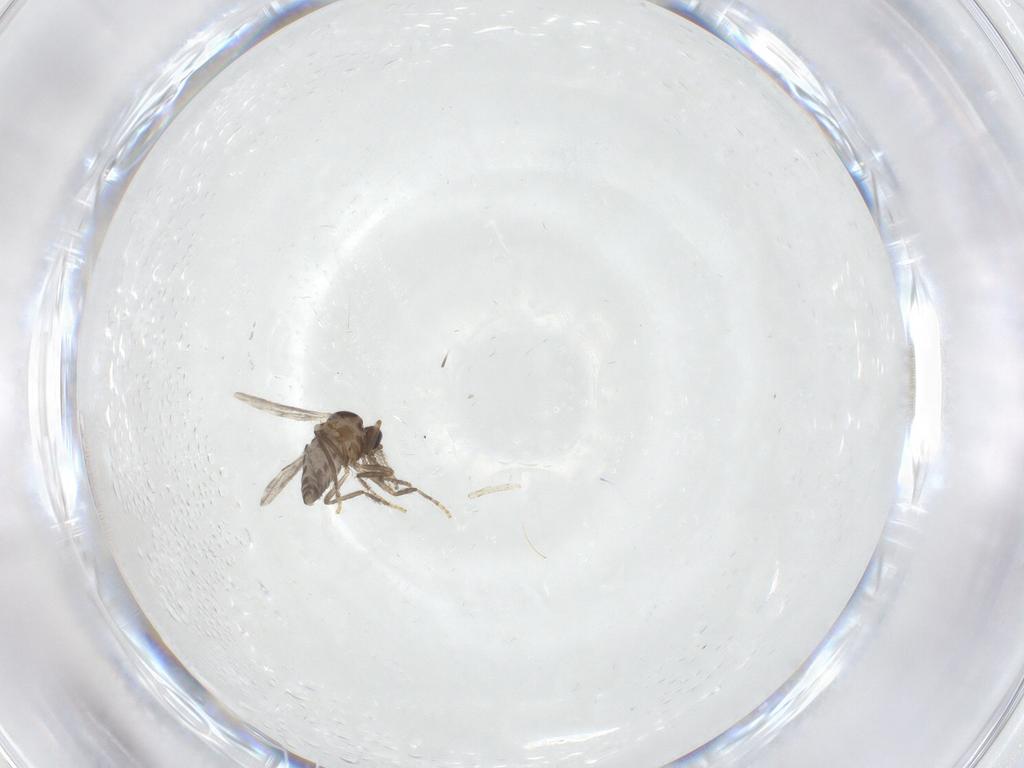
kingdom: Animalia
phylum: Arthropoda
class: Insecta
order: Diptera
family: Ceratopogonidae
